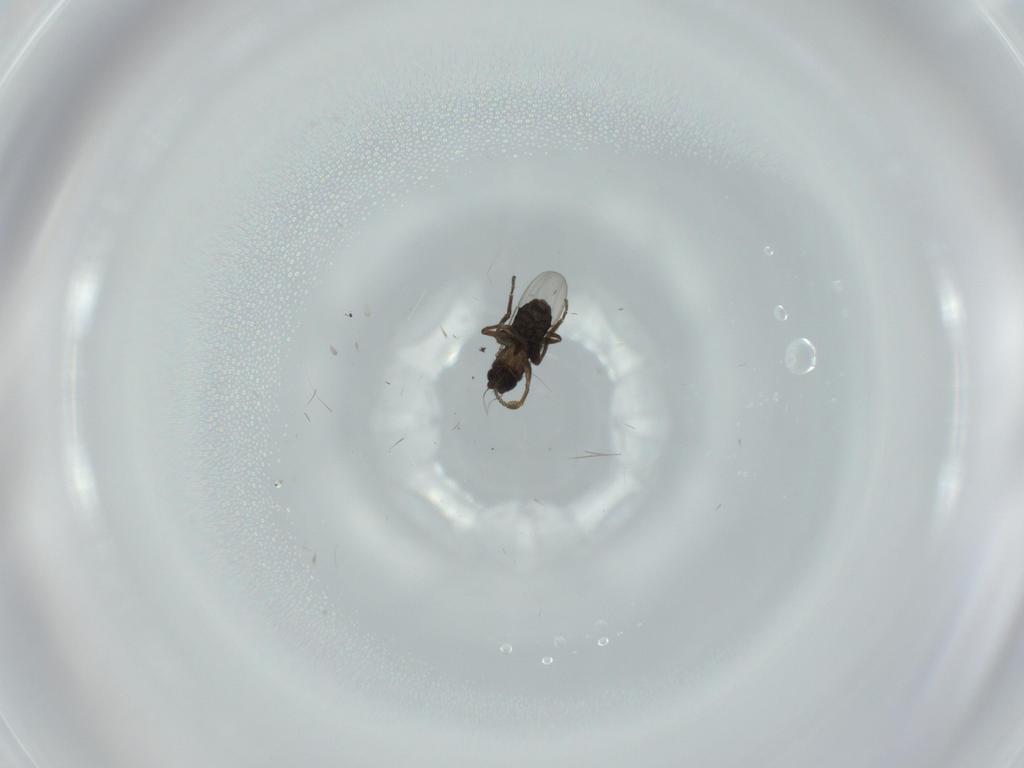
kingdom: Animalia
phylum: Arthropoda
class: Insecta
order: Diptera
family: Phoridae
